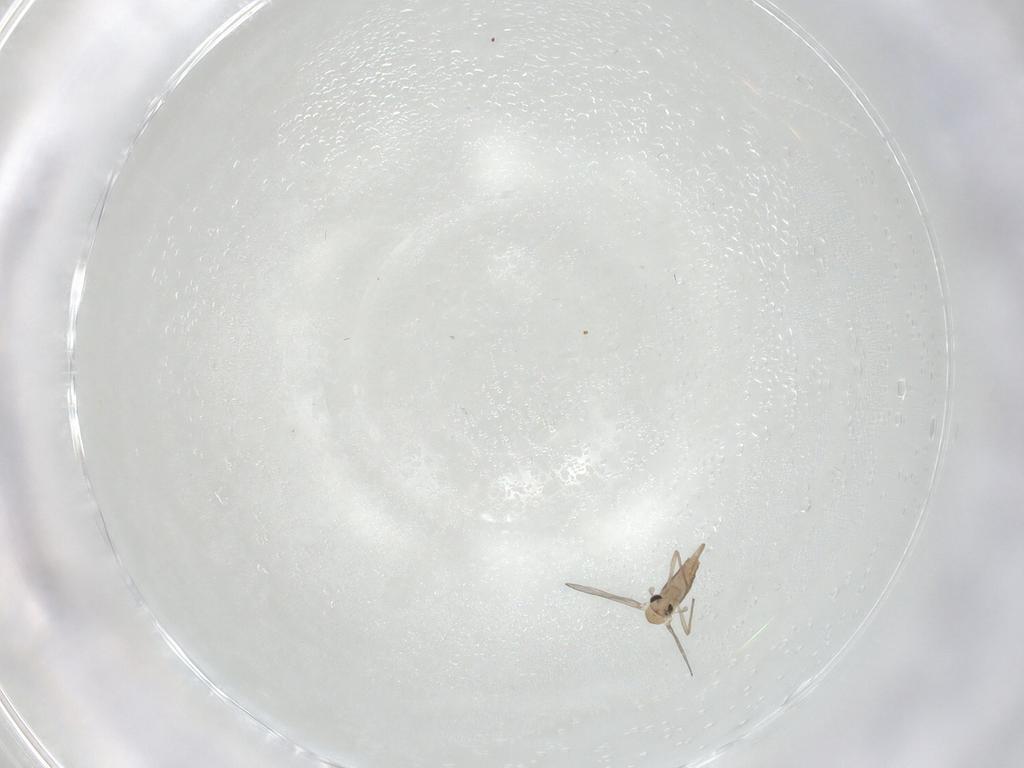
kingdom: Animalia
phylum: Arthropoda
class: Insecta
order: Diptera
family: Chironomidae
